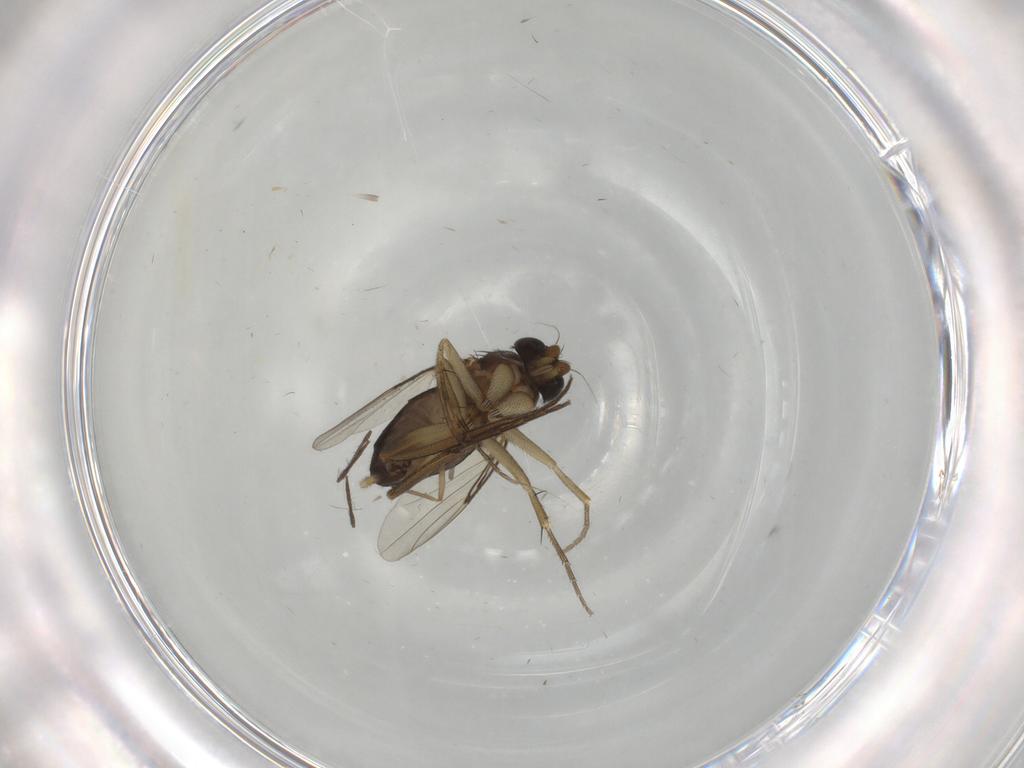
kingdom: Animalia
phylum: Arthropoda
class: Insecta
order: Diptera
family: Phoridae
